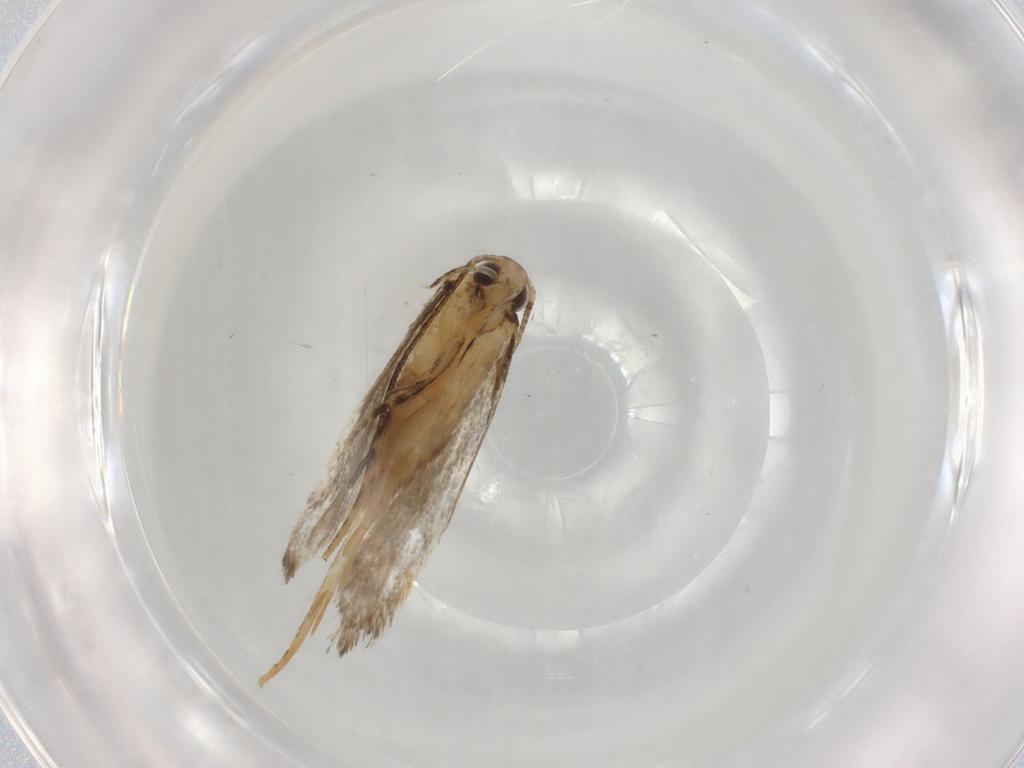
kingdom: Animalia
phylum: Arthropoda
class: Insecta
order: Lepidoptera
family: Autostichidae
